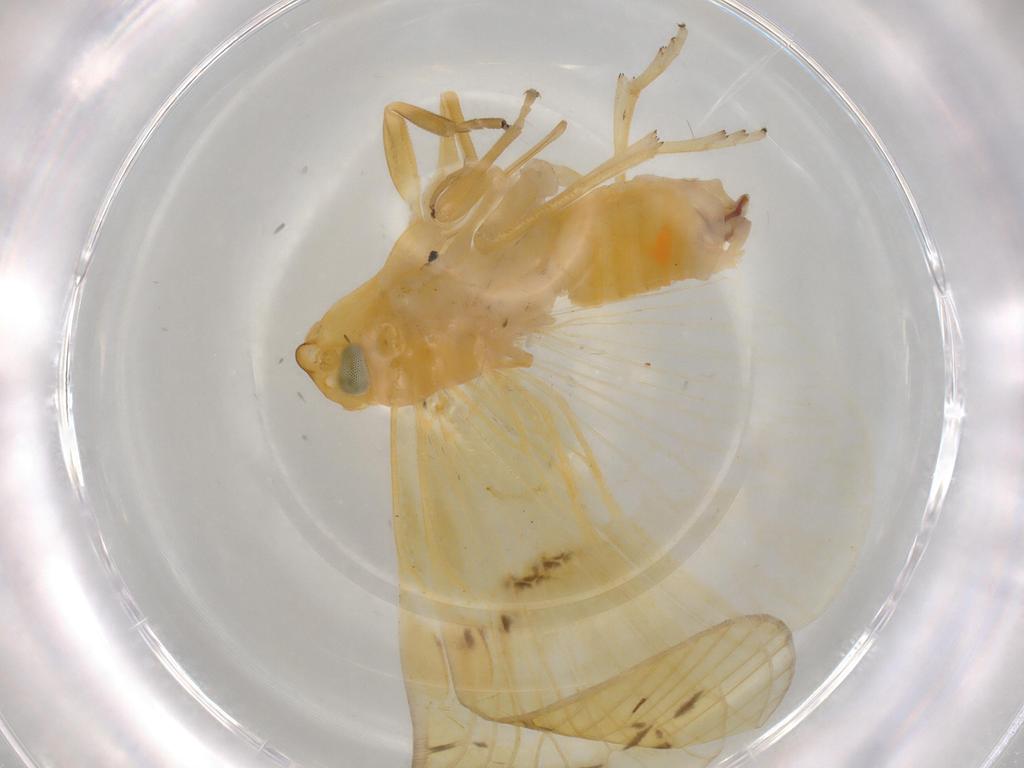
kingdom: Animalia
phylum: Arthropoda
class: Insecta
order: Hemiptera
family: Cixiidae
